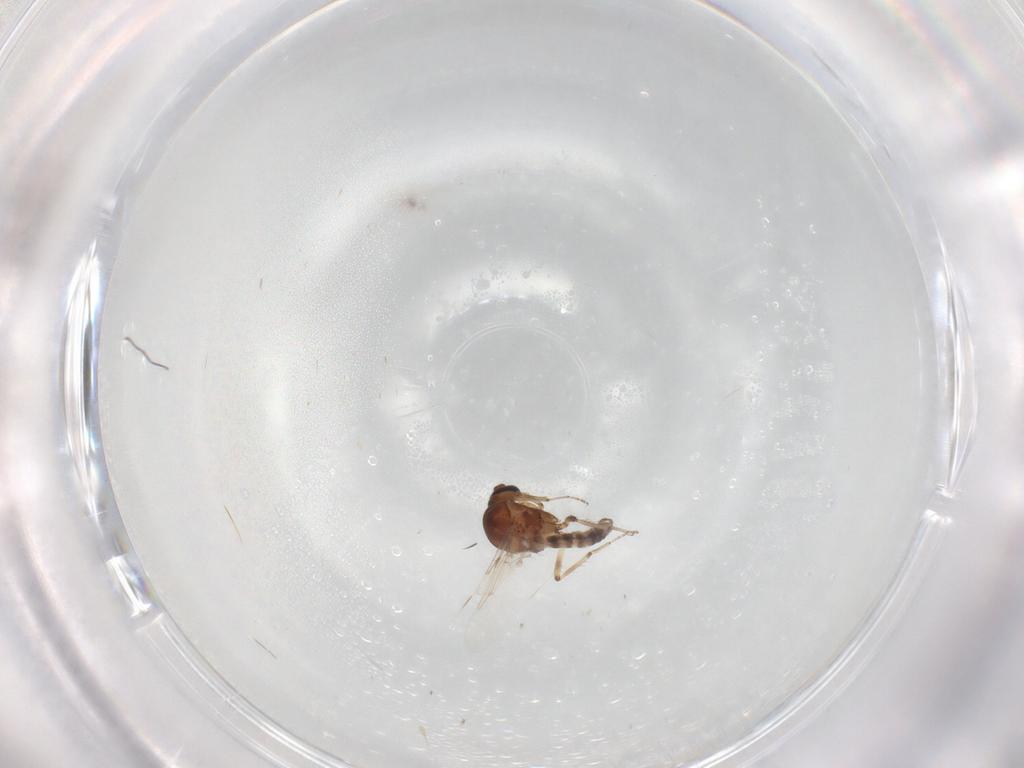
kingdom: Animalia
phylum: Arthropoda
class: Insecta
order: Diptera
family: Ceratopogonidae
